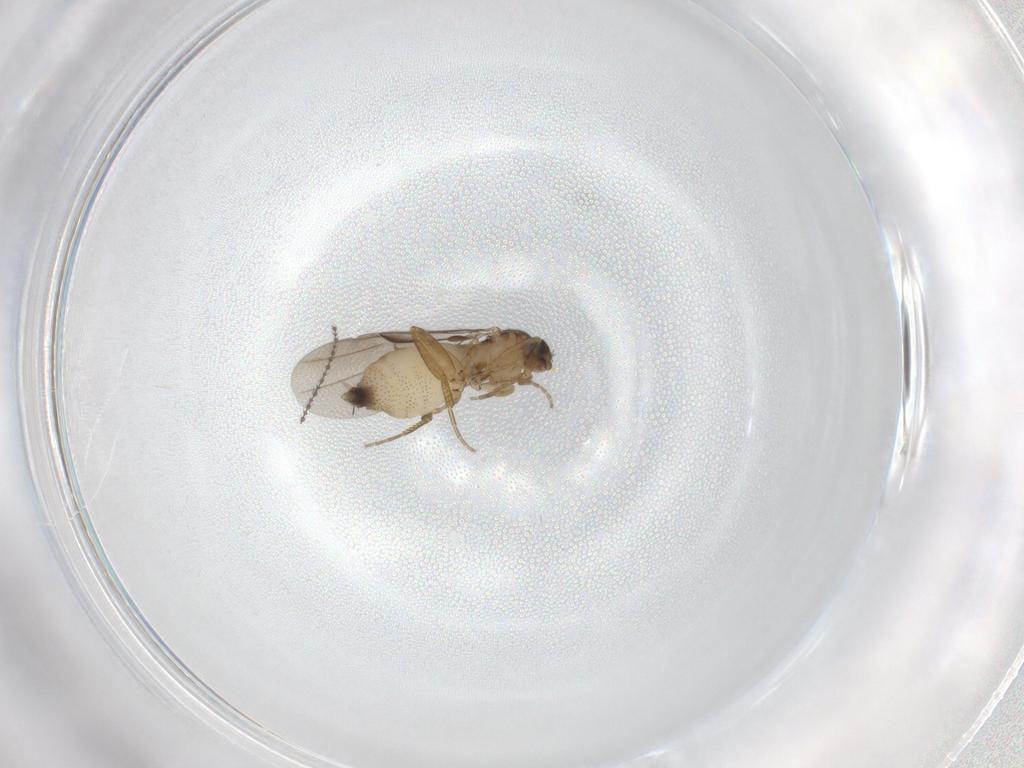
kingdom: Animalia
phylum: Arthropoda
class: Insecta
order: Diptera
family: Phoridae
